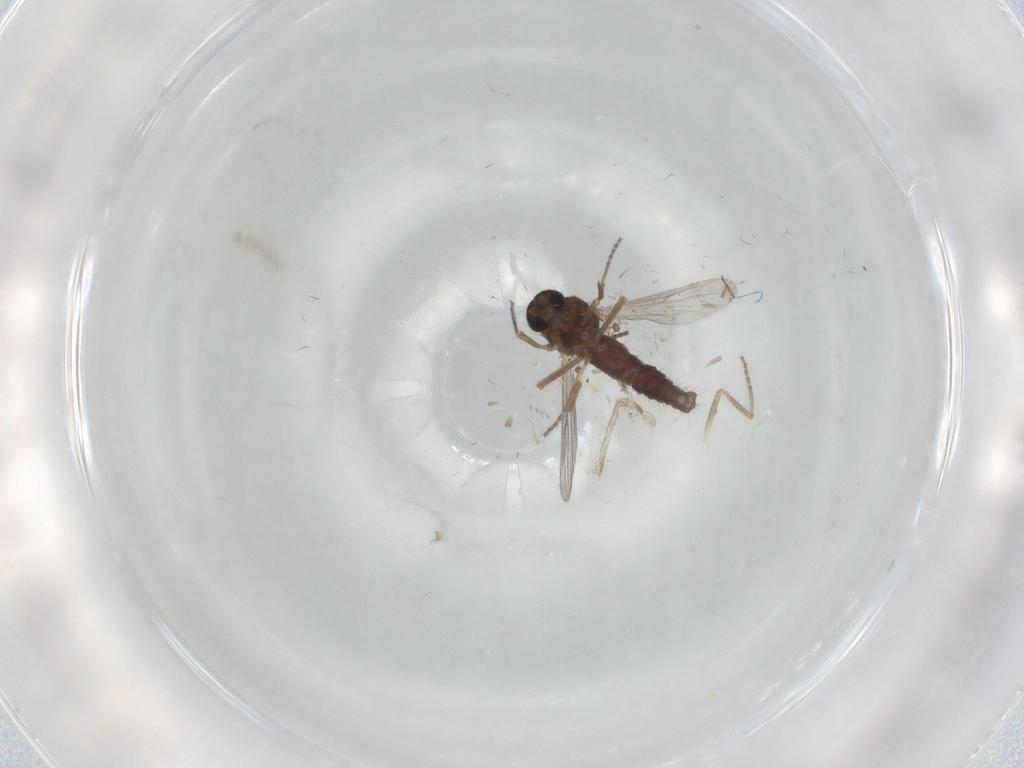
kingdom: Animalia
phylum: Arthropoda
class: Insecta
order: Diptera
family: Ceratopogonidae
